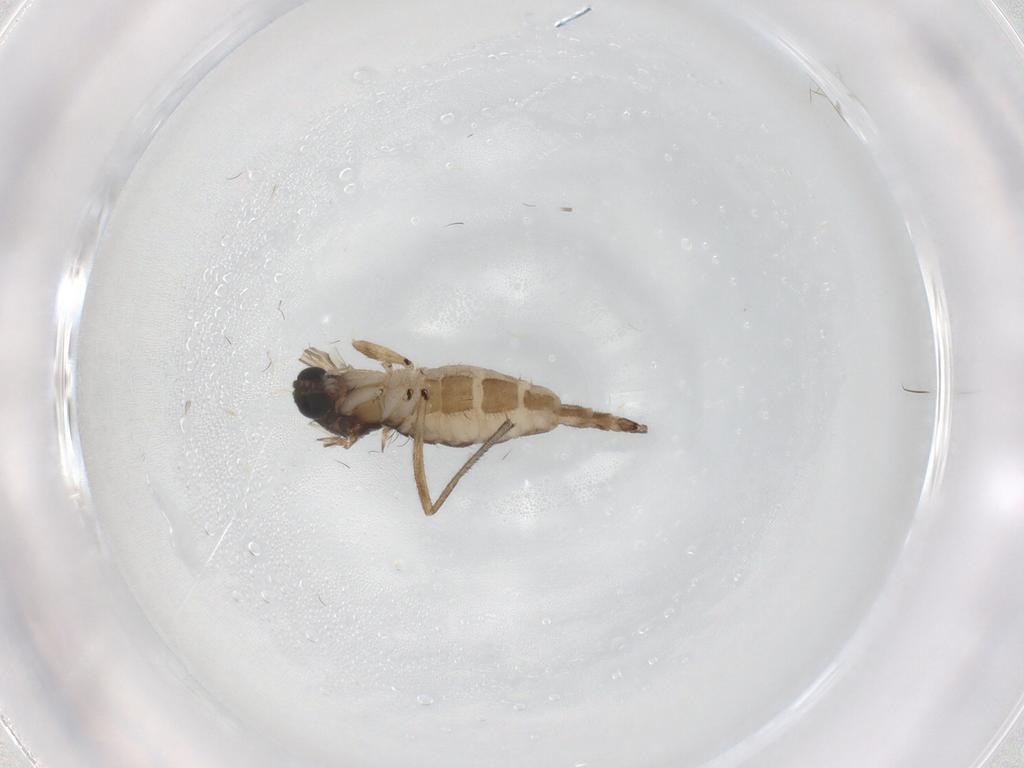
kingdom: Animalia
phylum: Arthropoda
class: Insecta
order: Diptera
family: Sciaridae
